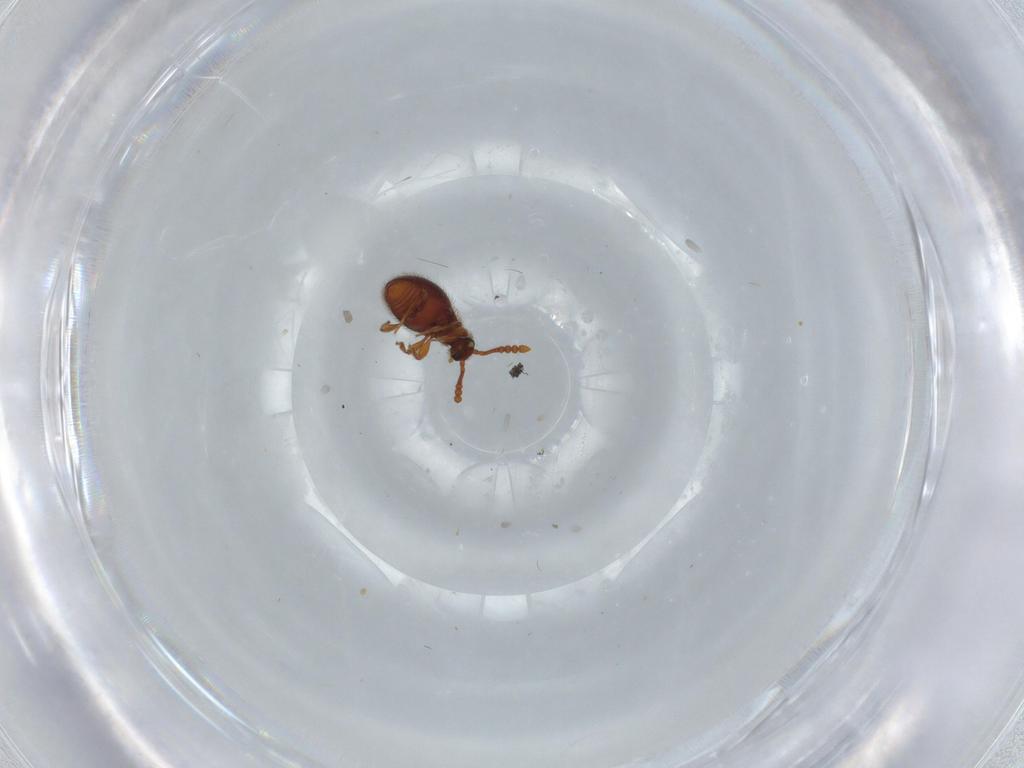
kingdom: Animalia
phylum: Arthropoda
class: Insecta
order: Coleoptera
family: Staphylinidae
